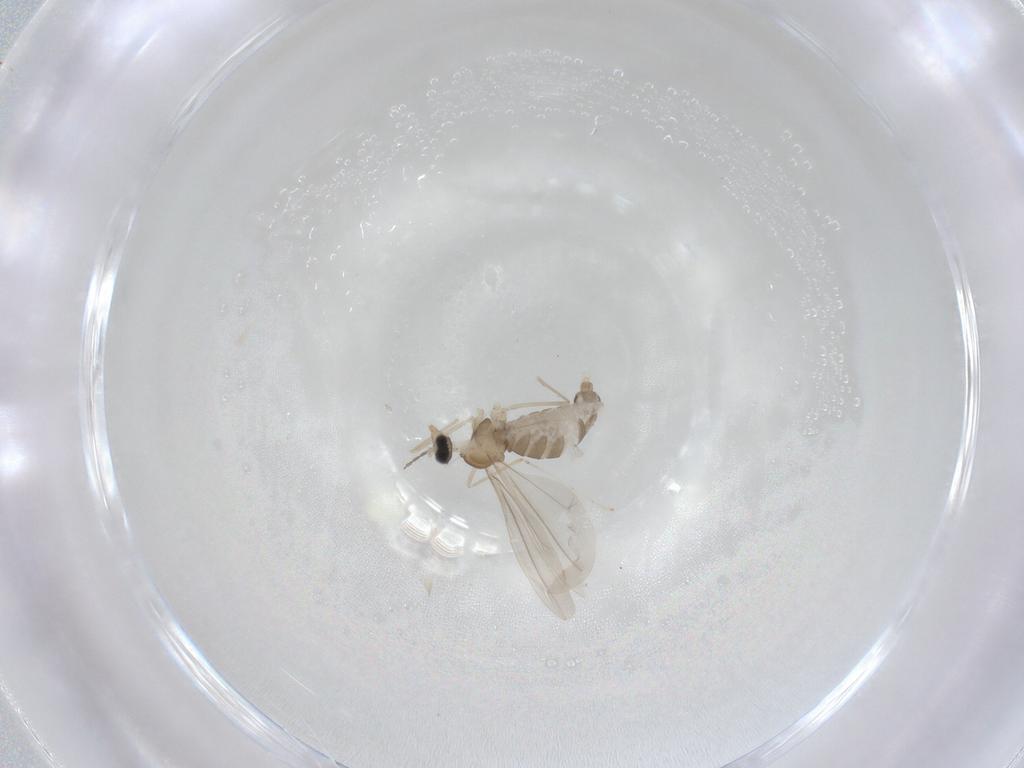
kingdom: Animalia
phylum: Arthropoda
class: Insecta
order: Diptera
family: Cecidomyiidae
